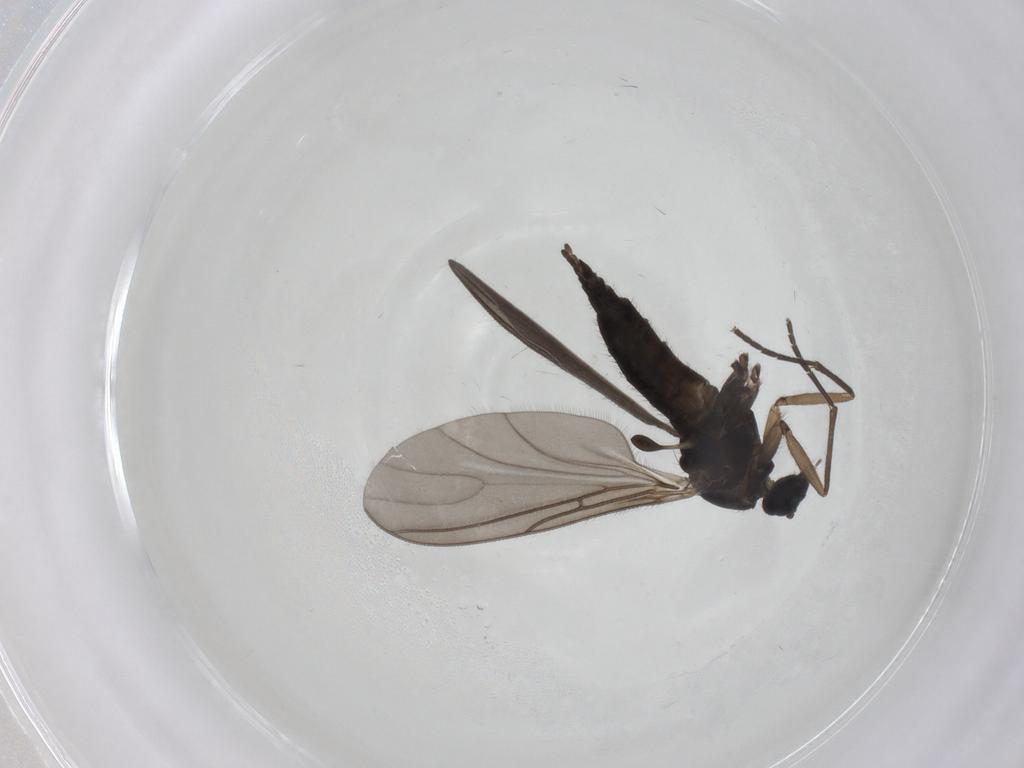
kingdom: Animalia
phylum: Arthropoda
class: Insecta
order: Diptera
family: Sciaridae
